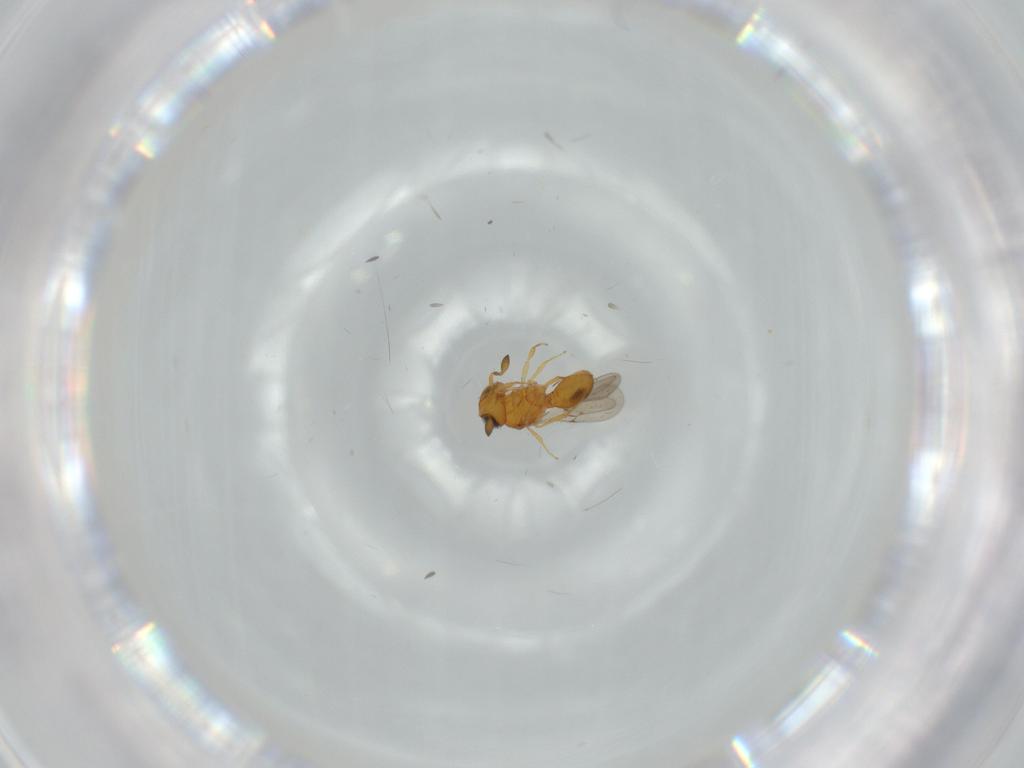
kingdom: Animalia
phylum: Arthropoda
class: Insecta
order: Hymenoptera
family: Scelionidae
